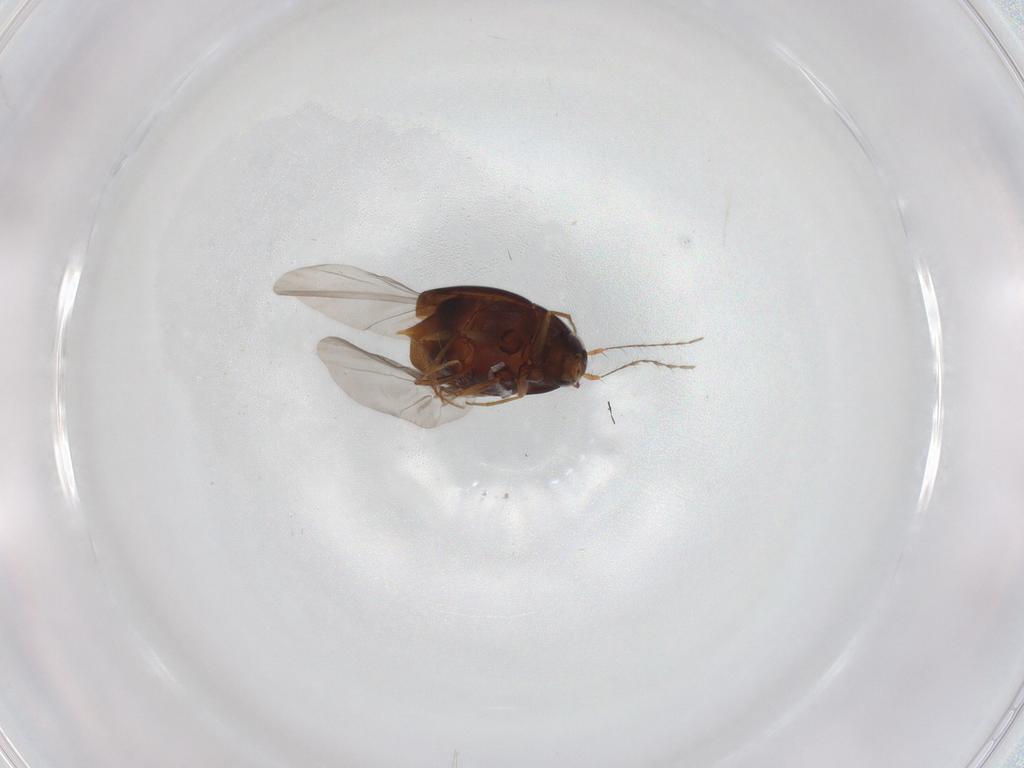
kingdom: Animalia
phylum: Arthropoda
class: Insecta
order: Coleoptera
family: Staphylinidae
